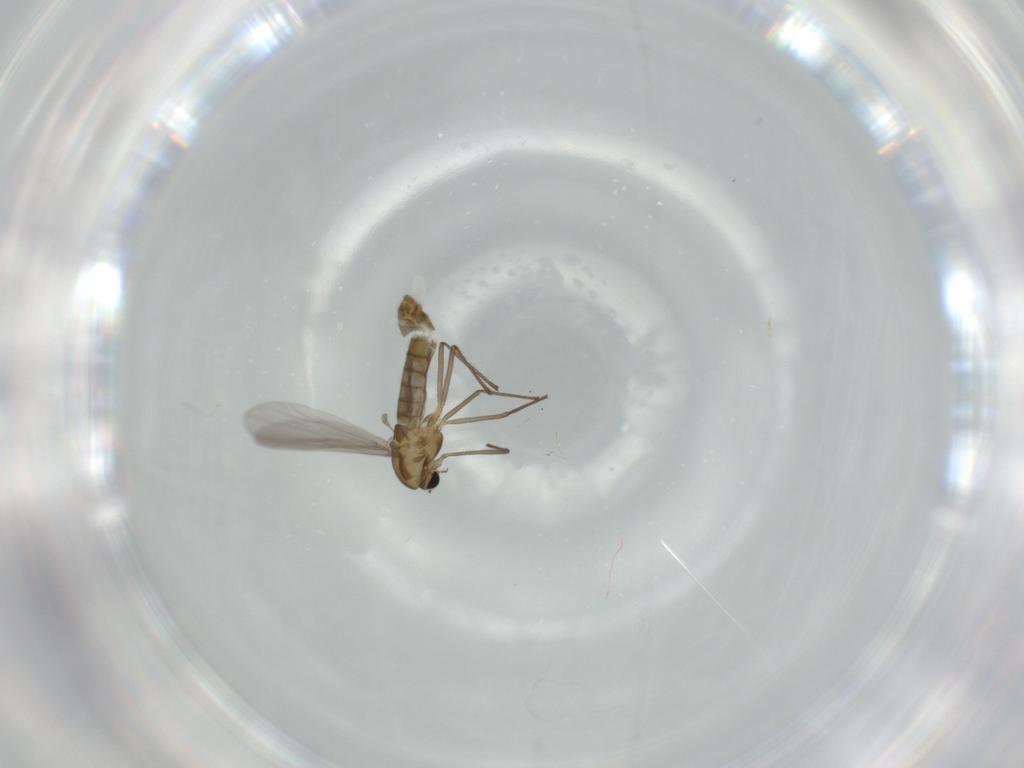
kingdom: Animalia
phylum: Arthropoda
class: Insecta
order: Diptera
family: Chironomidae
